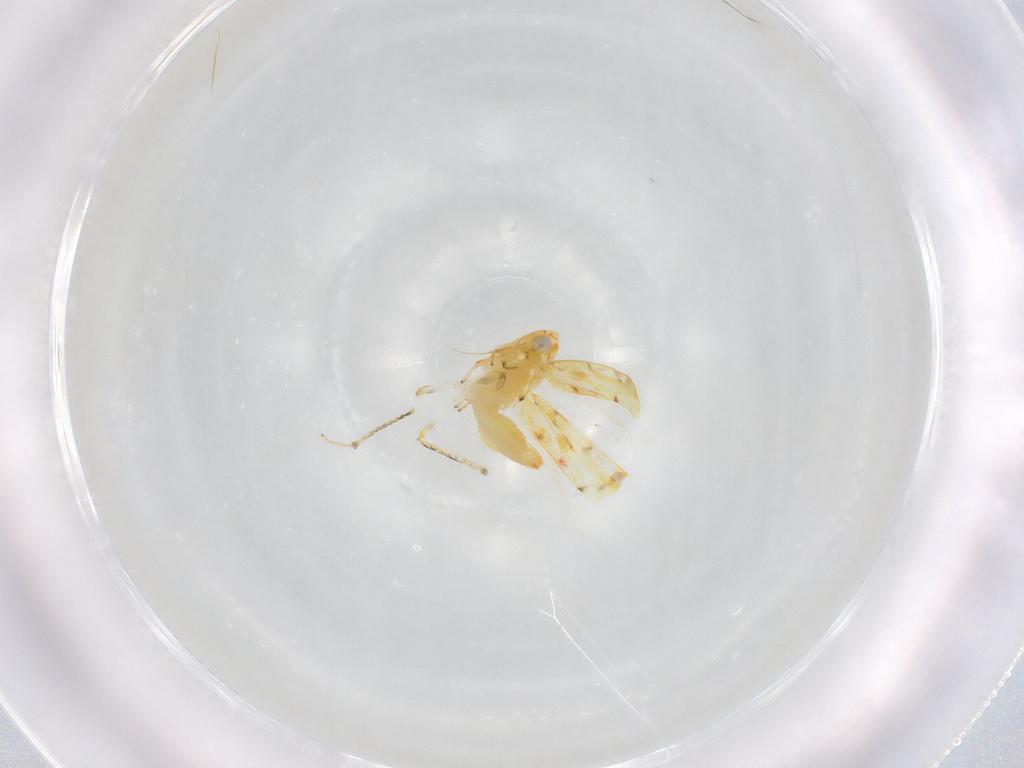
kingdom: Animalia
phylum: Arthropoda
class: Insecta
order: Hemiptera
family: Cicadellidae
